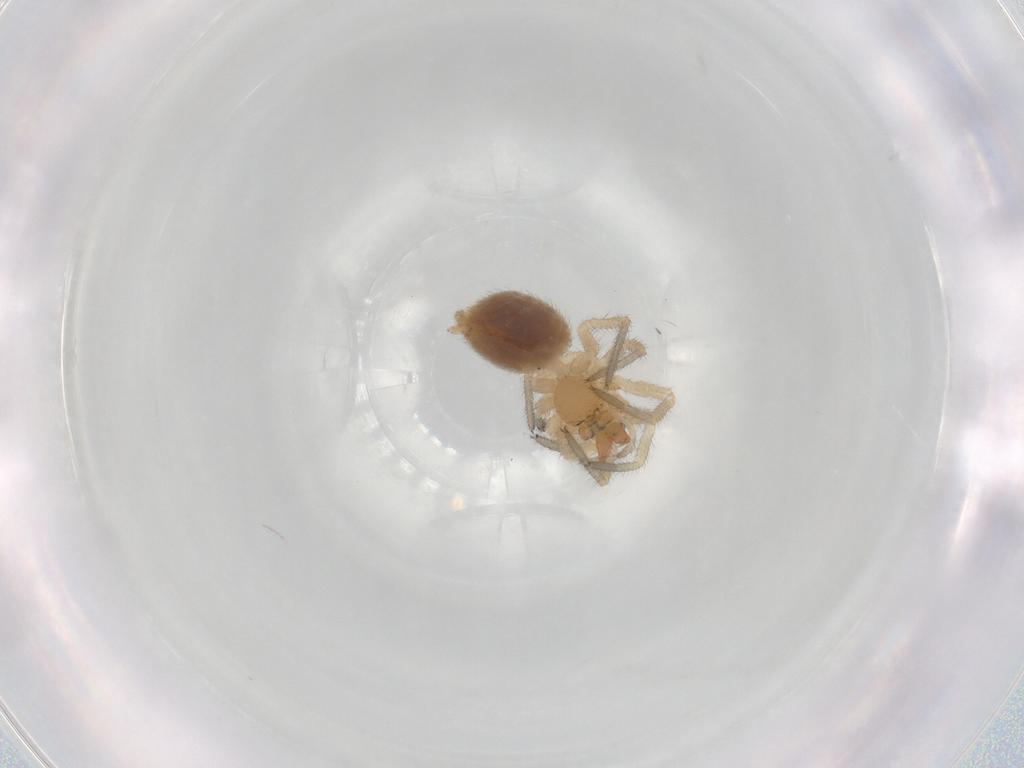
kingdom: Animalia
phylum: Arthropoda
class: Arachnida
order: Araneae
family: Linyphiidae
